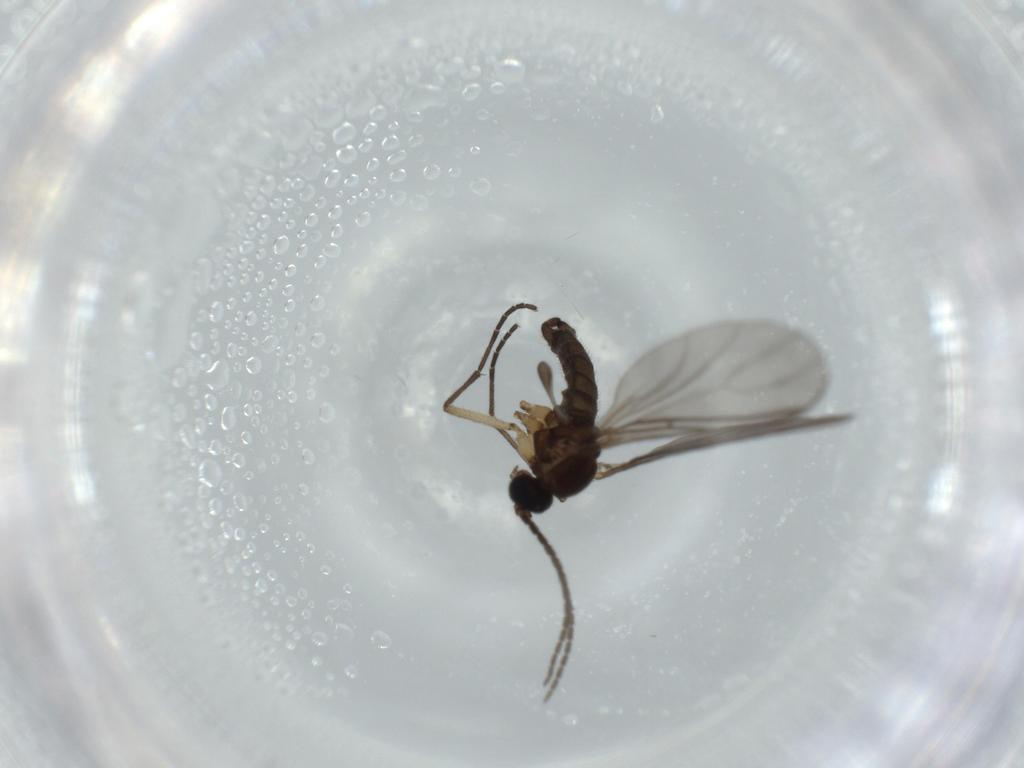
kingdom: Animalia
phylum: Arthropoda
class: Insecta
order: Diptera
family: Sciaridae
